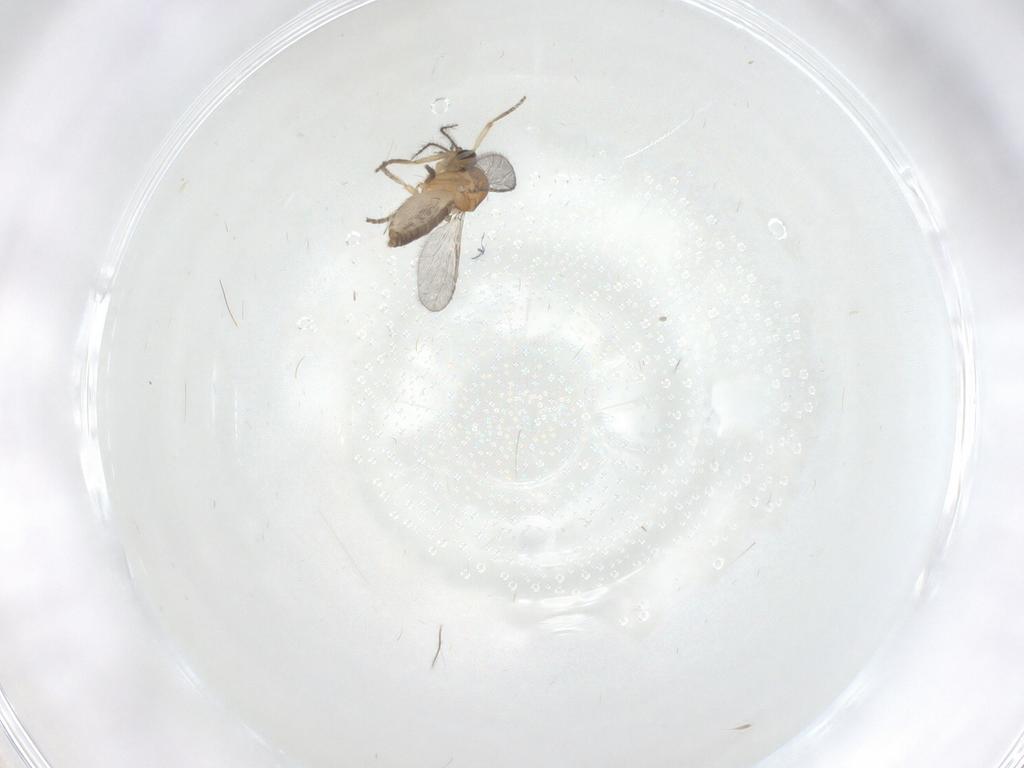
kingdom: Animalia
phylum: Arthropoda
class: Insecta
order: Diptera
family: Ceratopogonidae
